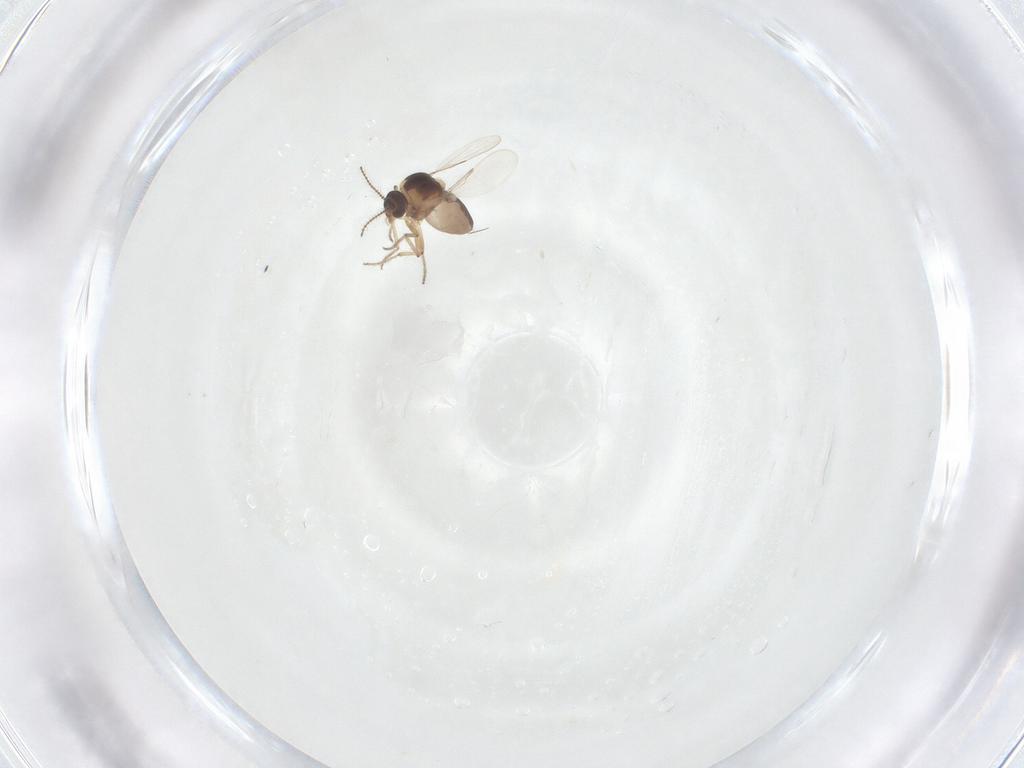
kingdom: Animalia
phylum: Arthropoda
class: Insecta
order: Diptera
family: Ceratopogonidae
